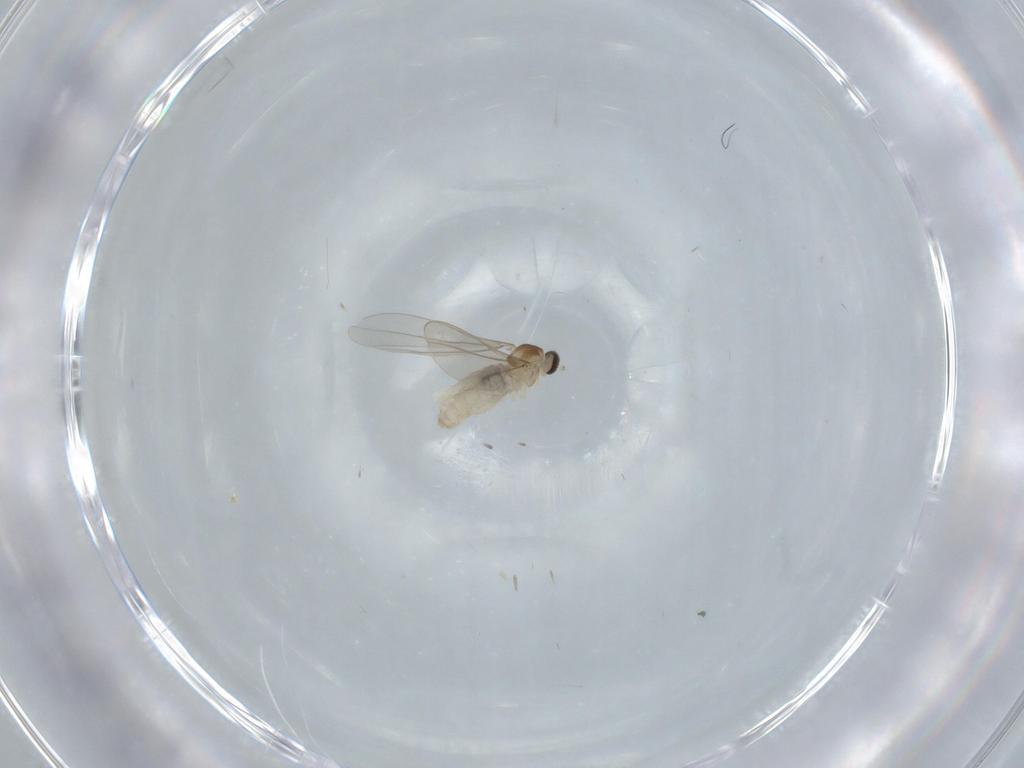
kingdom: Animalia
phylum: Arthropoda
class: Insecta
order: Diptera
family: Cecidomyiidae
